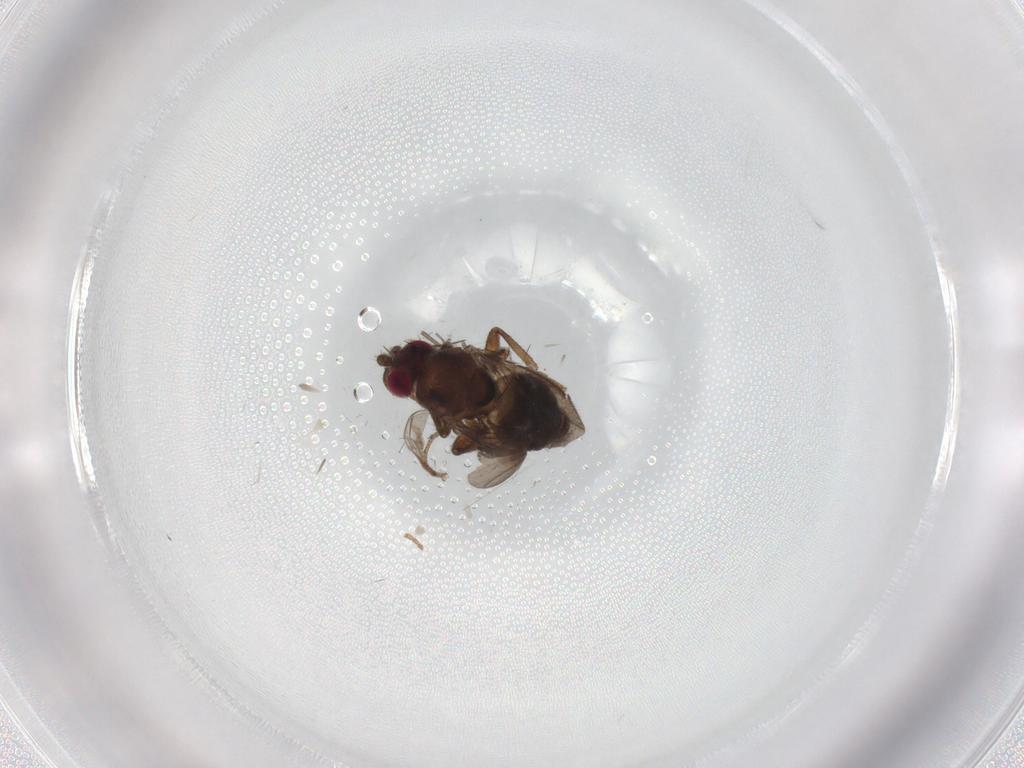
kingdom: Animalia
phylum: Arthropoda
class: Insecta
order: Diptera
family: Sphaeroceridae
